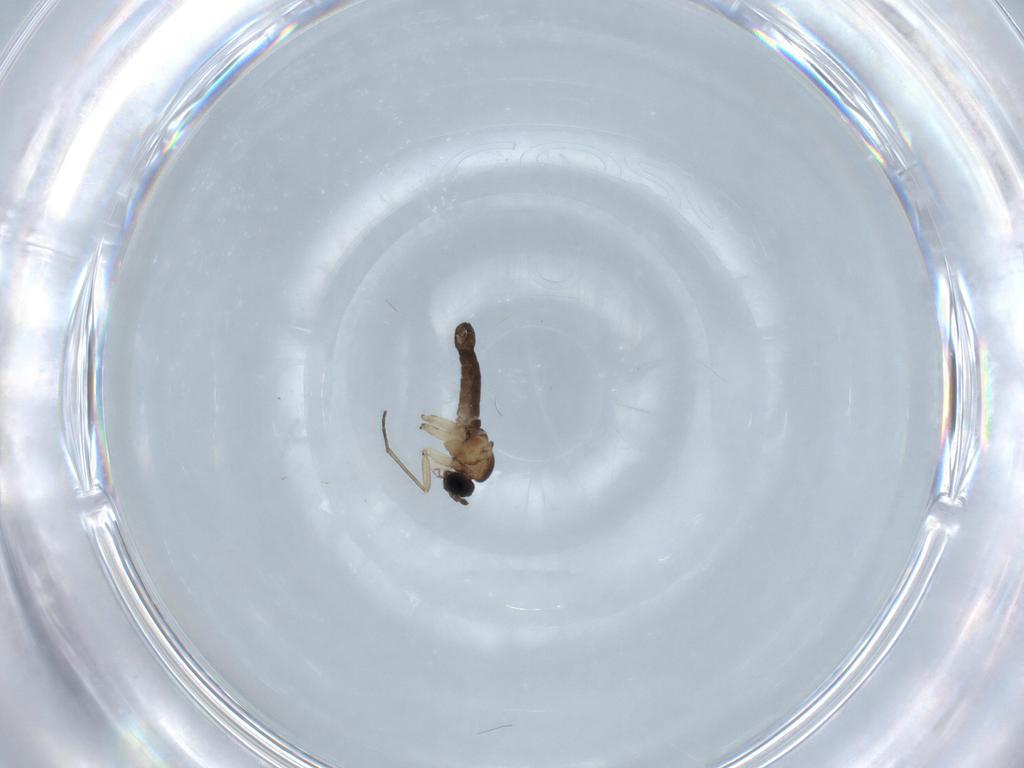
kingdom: Animalia
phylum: Arthropoda
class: Insecta
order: Diptera
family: Sciaridae
